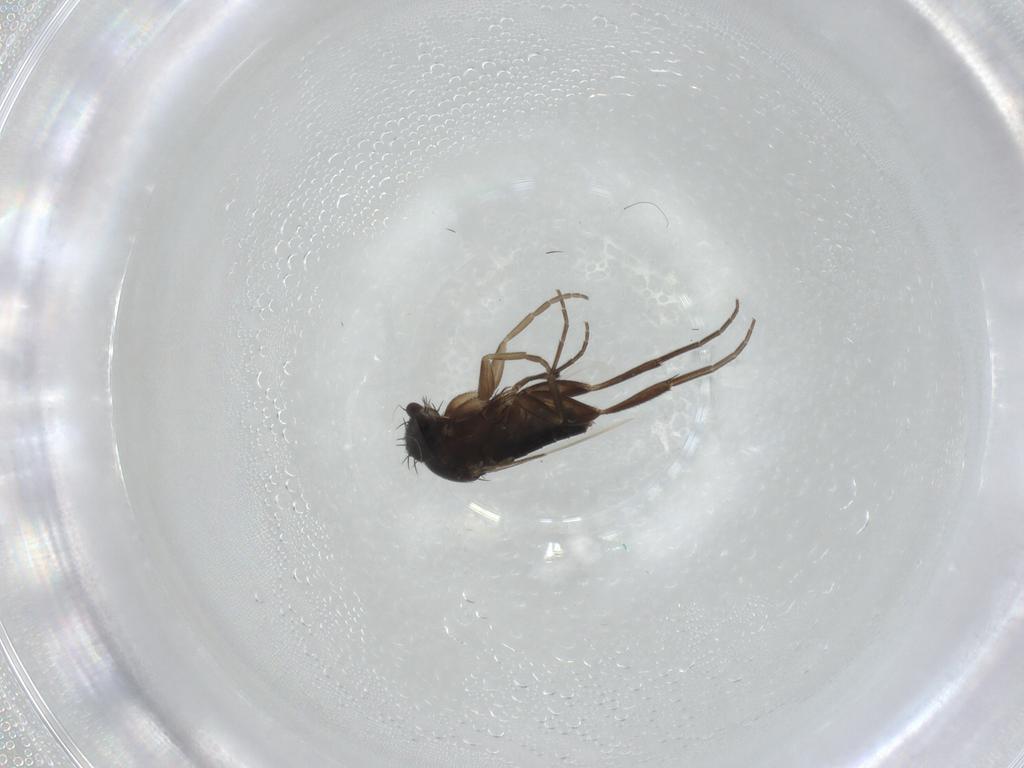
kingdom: Animalia
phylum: Arthropoda
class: Insecta
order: Diptera
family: Phoridae
